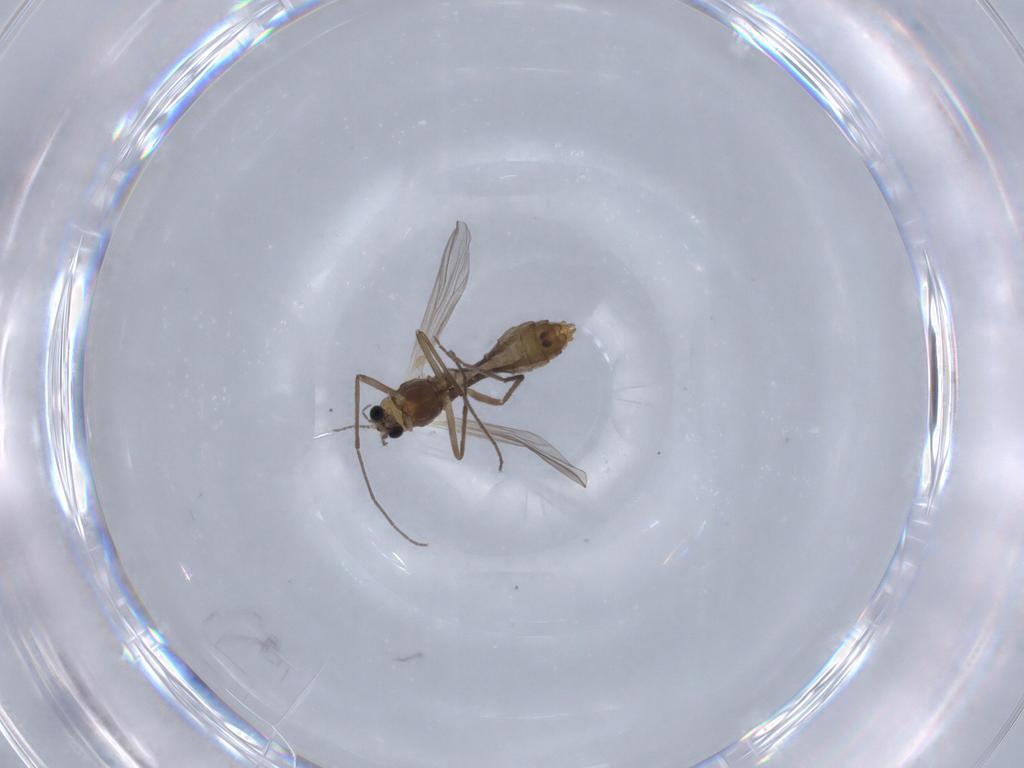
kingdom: Animalia
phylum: Arthropoda
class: Insecta
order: Diptera
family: Chironomidae
